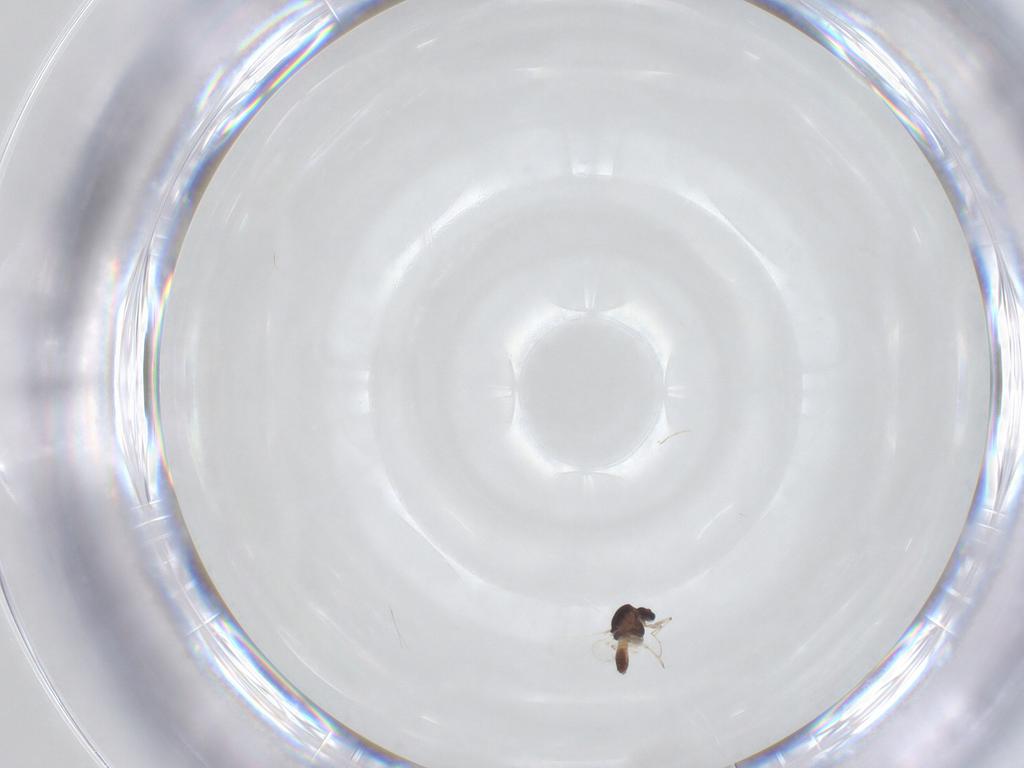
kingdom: Animalia
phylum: Arthropoda
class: Insecta
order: Diptera
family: Chironomidae
